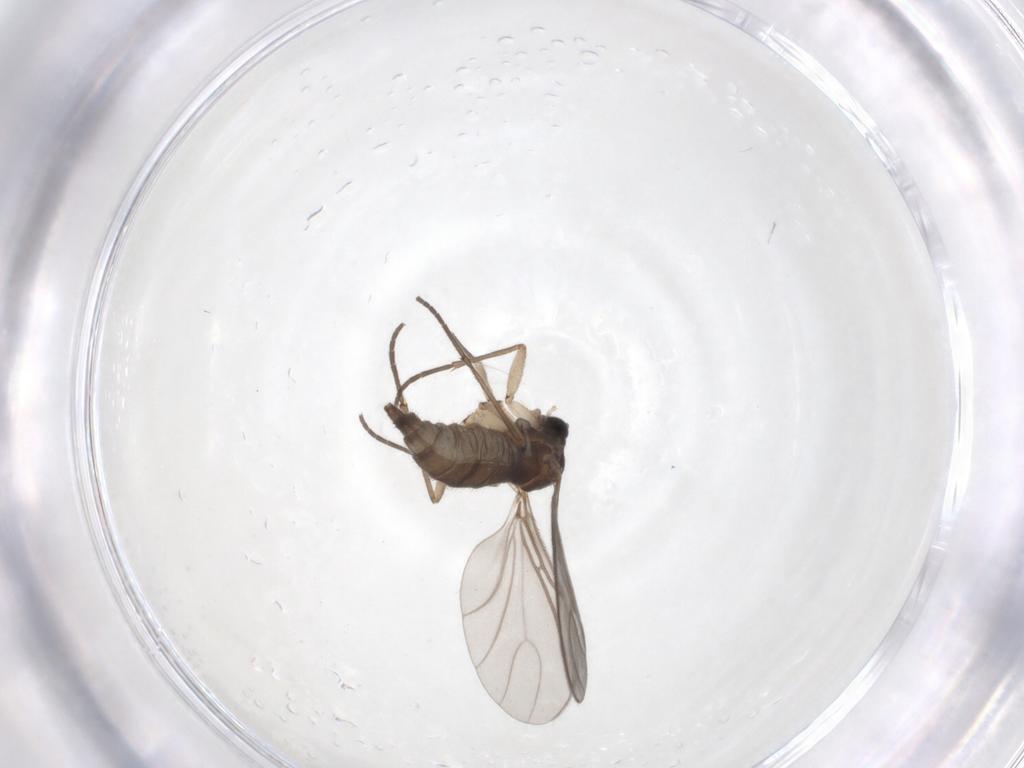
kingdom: Animalia
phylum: Arthropoda
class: Insecta
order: Diptera
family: Sciaridae
